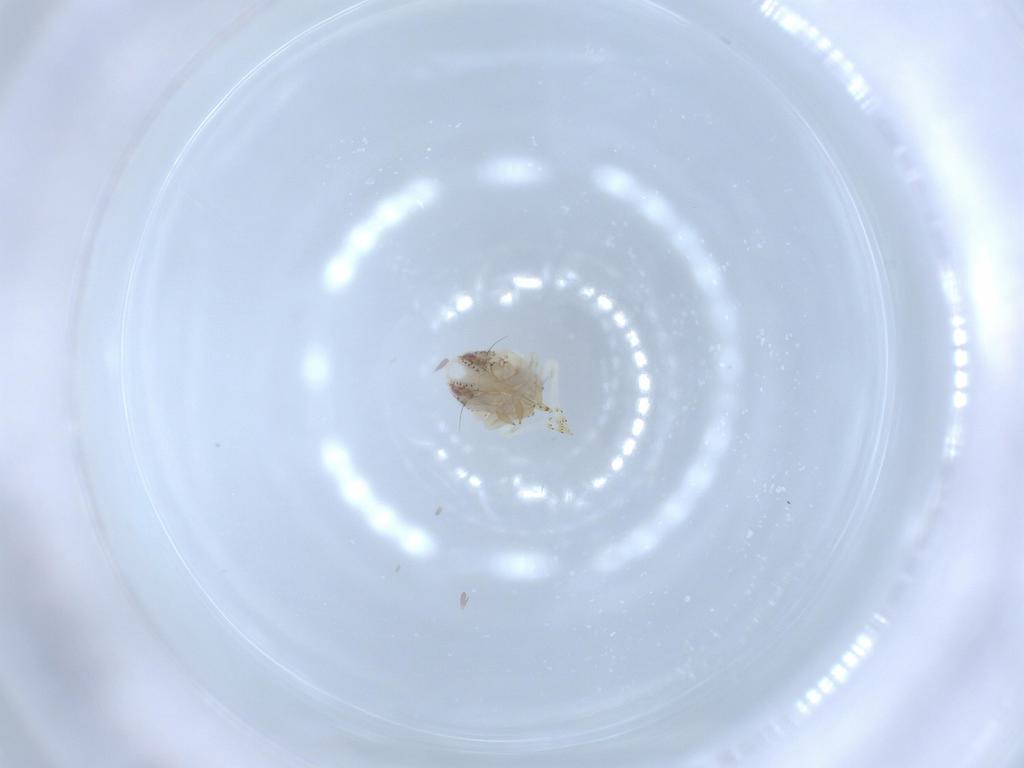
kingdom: Animalia
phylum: Arthropoda
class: Insecta
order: Hemiptera
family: Acanaloniidae
